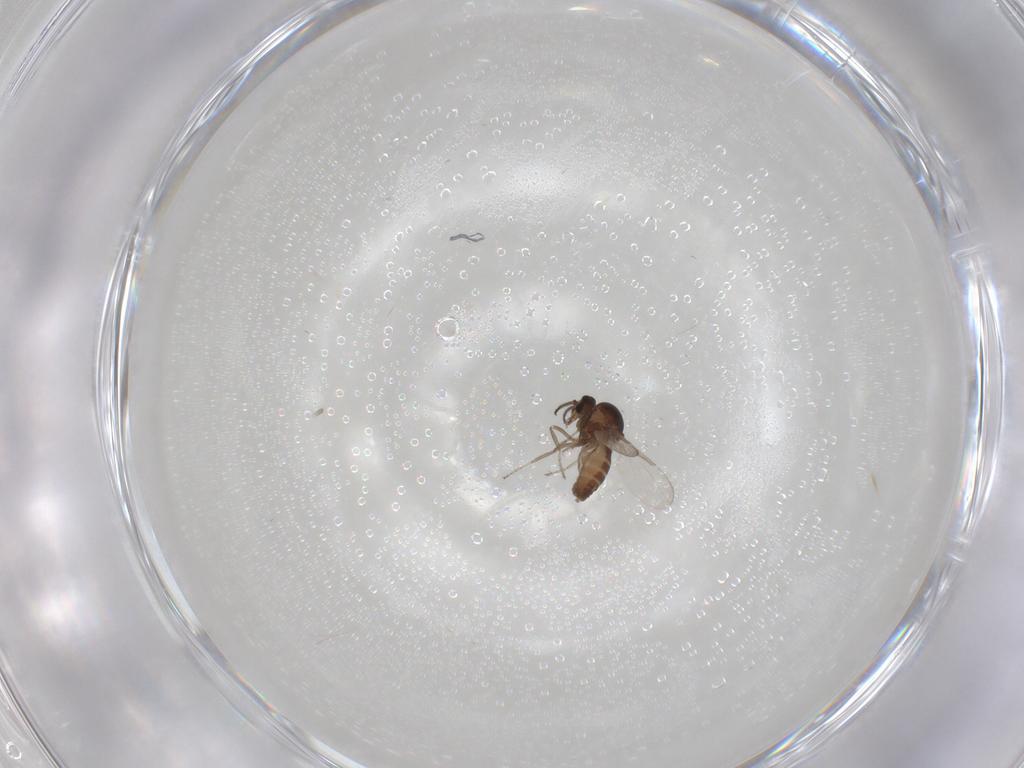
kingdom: Animalia
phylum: Arthropoda
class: Insecta
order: Diptera
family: Ceratopogonidae
